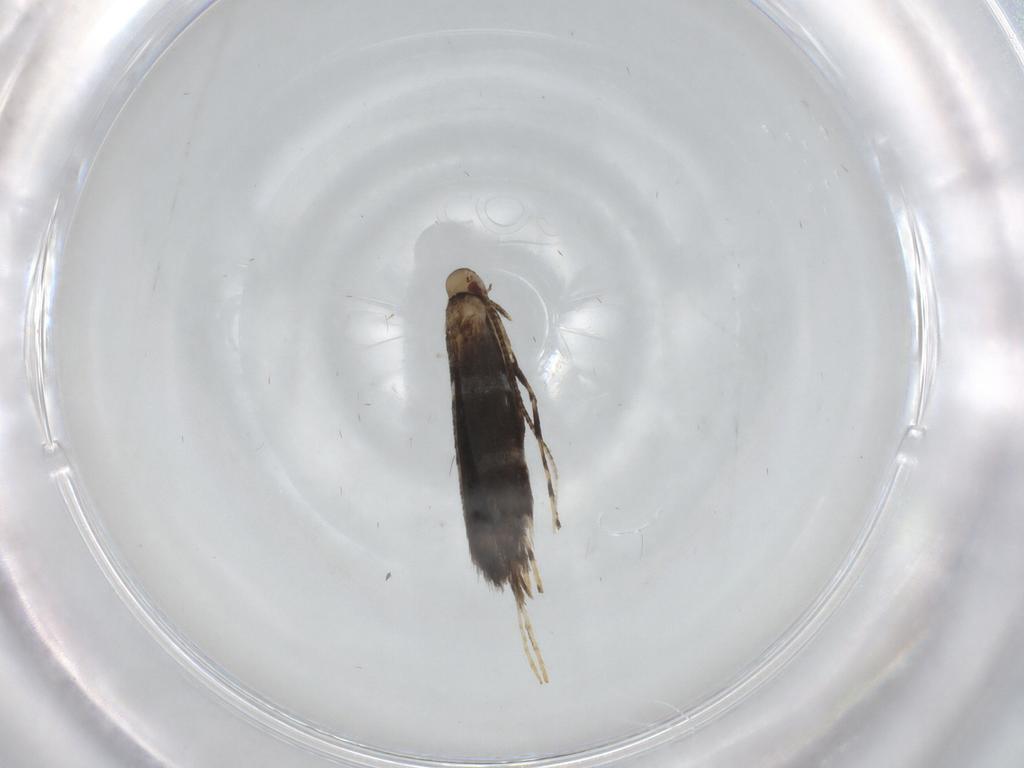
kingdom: Animalia
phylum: Arthropoda
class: Insecta
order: Lepidoptera
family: Gracillariidae
